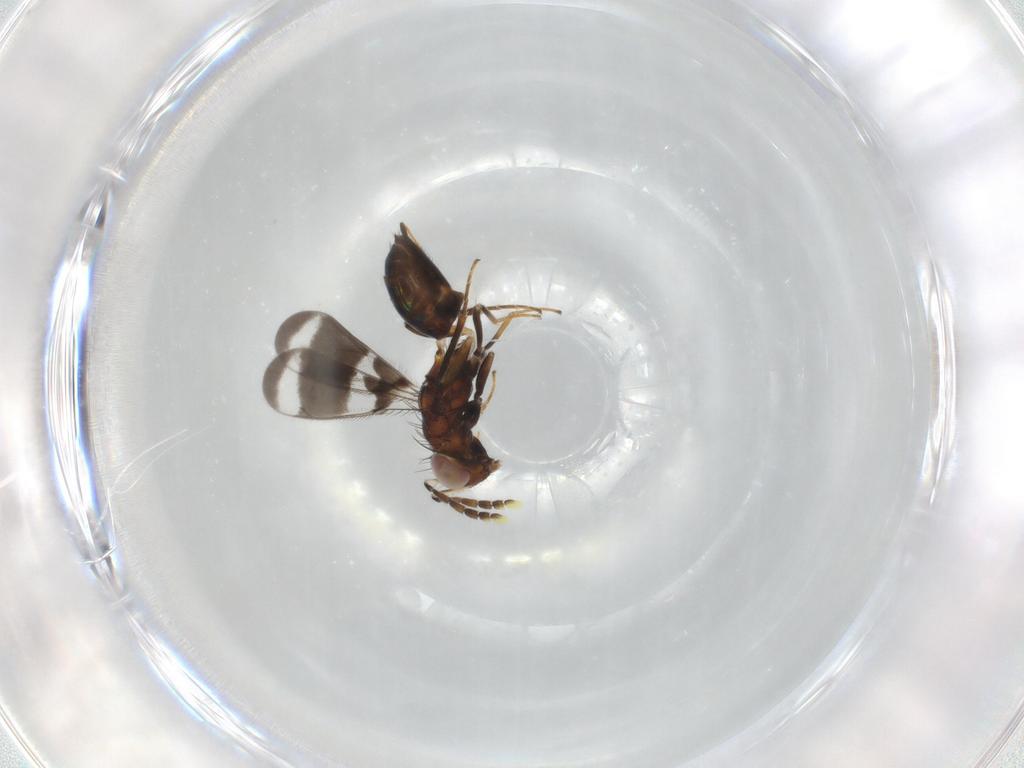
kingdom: Animalia
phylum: Arthropoda
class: Insecta
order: Hymenoptera
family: Eulophidae
